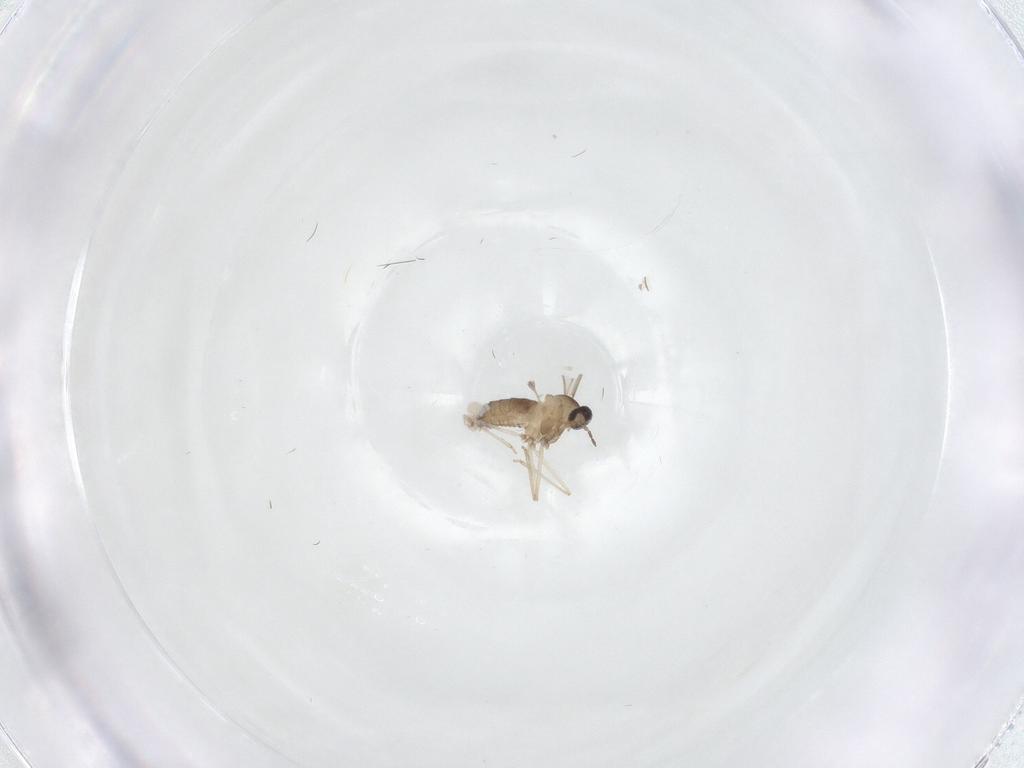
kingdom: Animalia
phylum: Arthropoda
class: Insecta
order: Diptera
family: Cecidomyiidae
